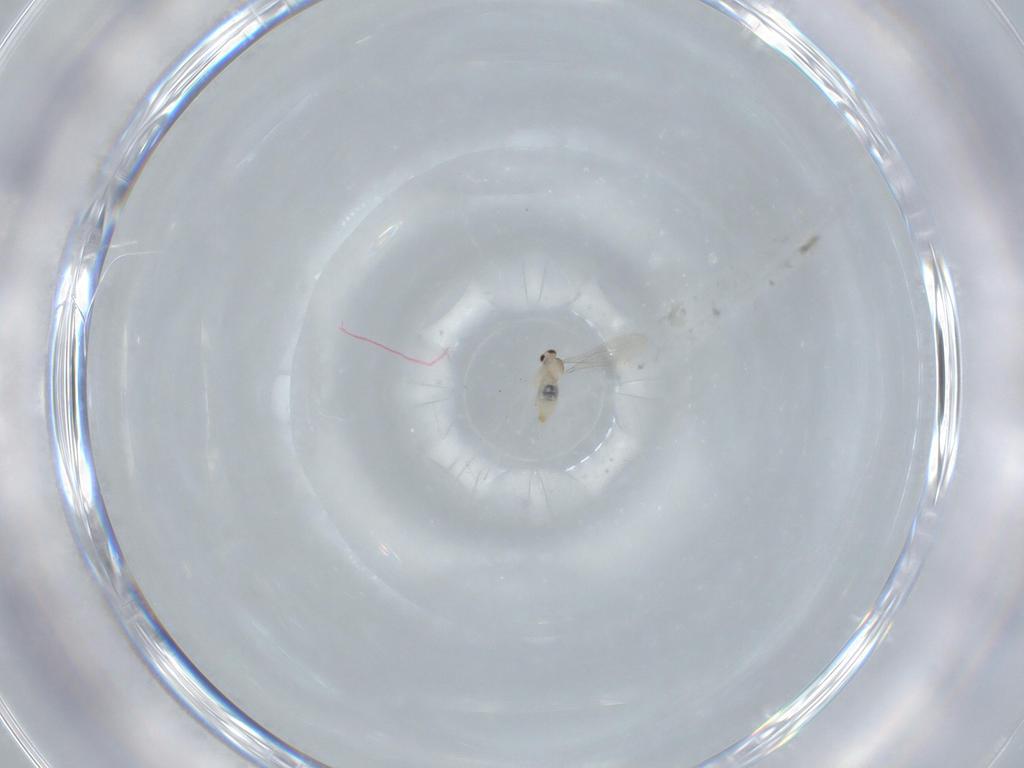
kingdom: Animalia
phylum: Arthropoda
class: Insecta
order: Diptera
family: Cecidomyiidae
